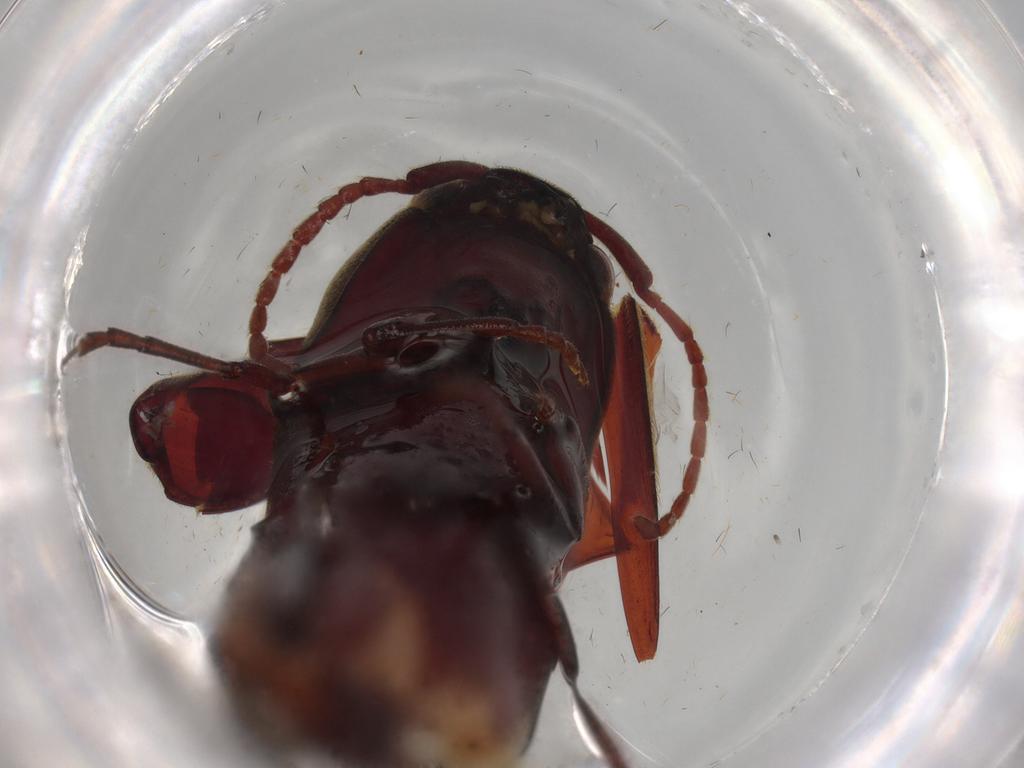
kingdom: Animalia
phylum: Arthropoda
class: Insecta
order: Coleoptera
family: Eucnemidae
